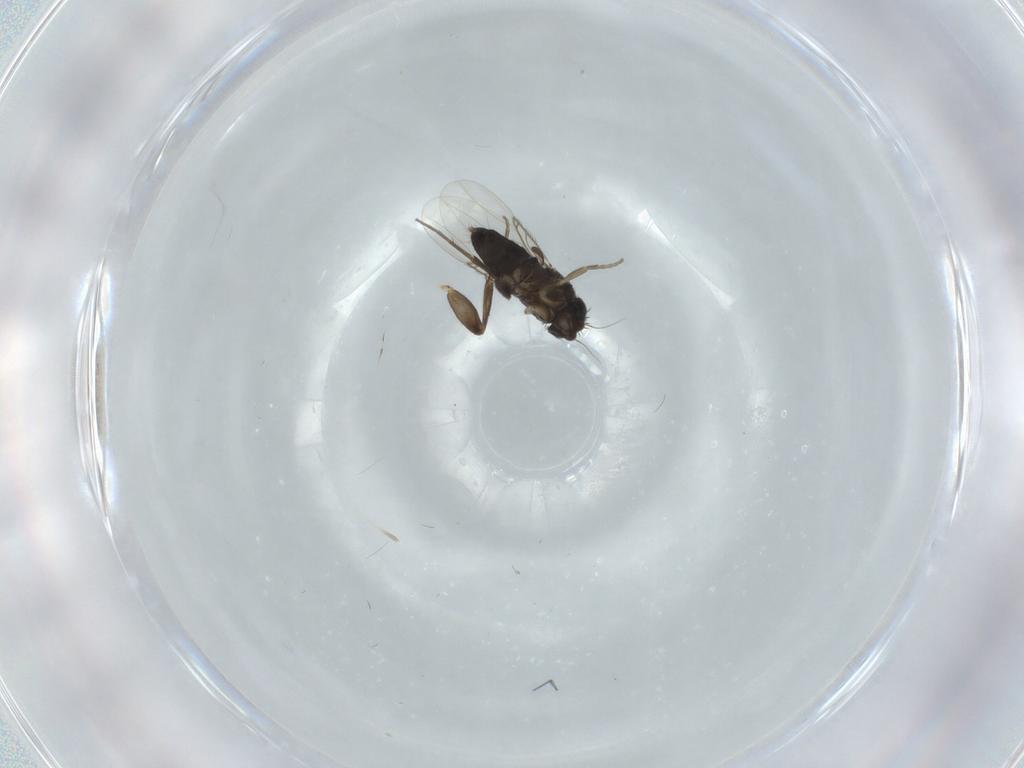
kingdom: Animalia
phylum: Arthropoda
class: Insecta
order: Diptera
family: Phoridae
